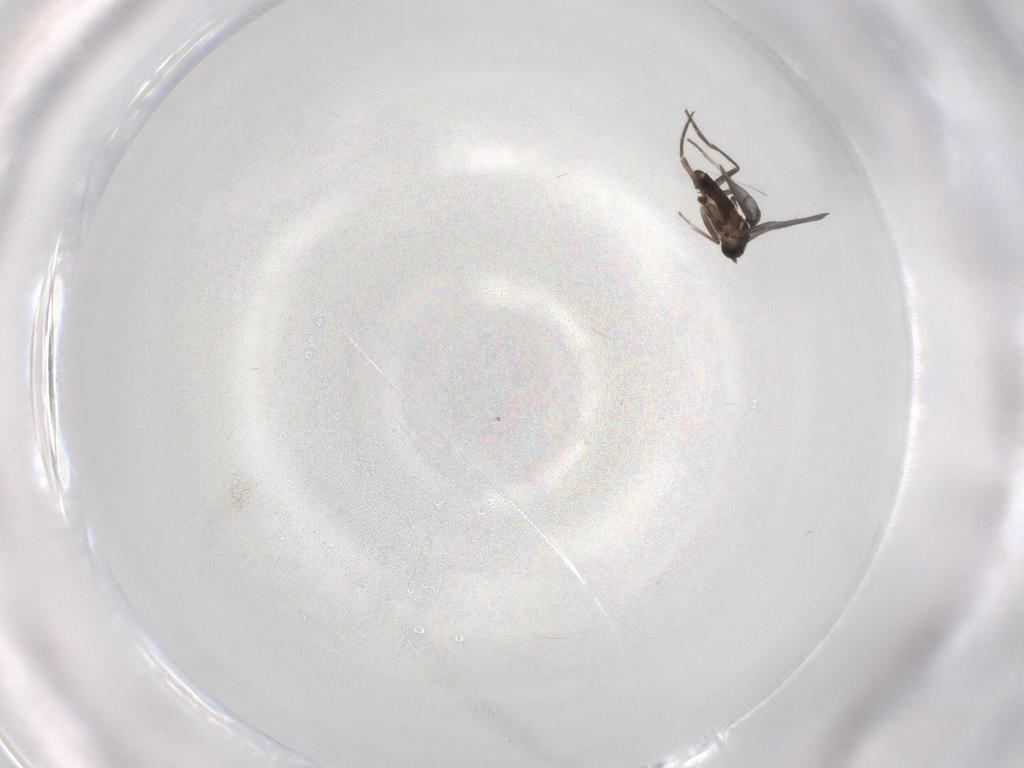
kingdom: Animalia
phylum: Arthropoda
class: Insecta
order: Diptera
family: Phoridae
